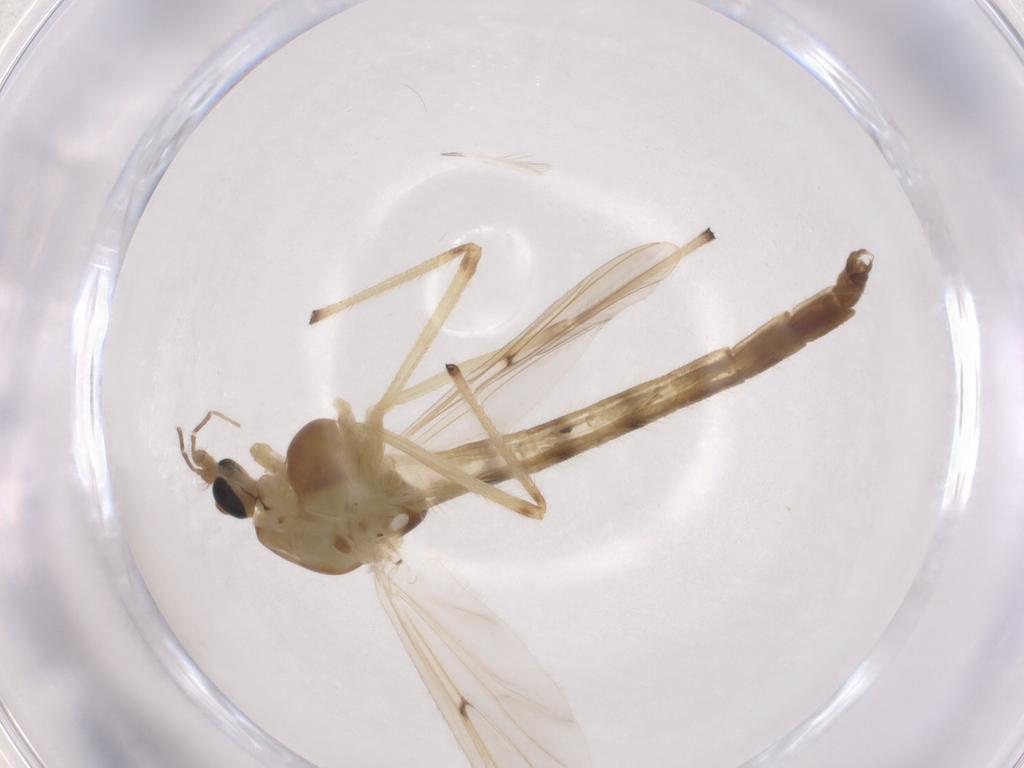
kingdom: Animalia
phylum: Arthropoda
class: Insecta
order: Diptera
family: Chironomidae
